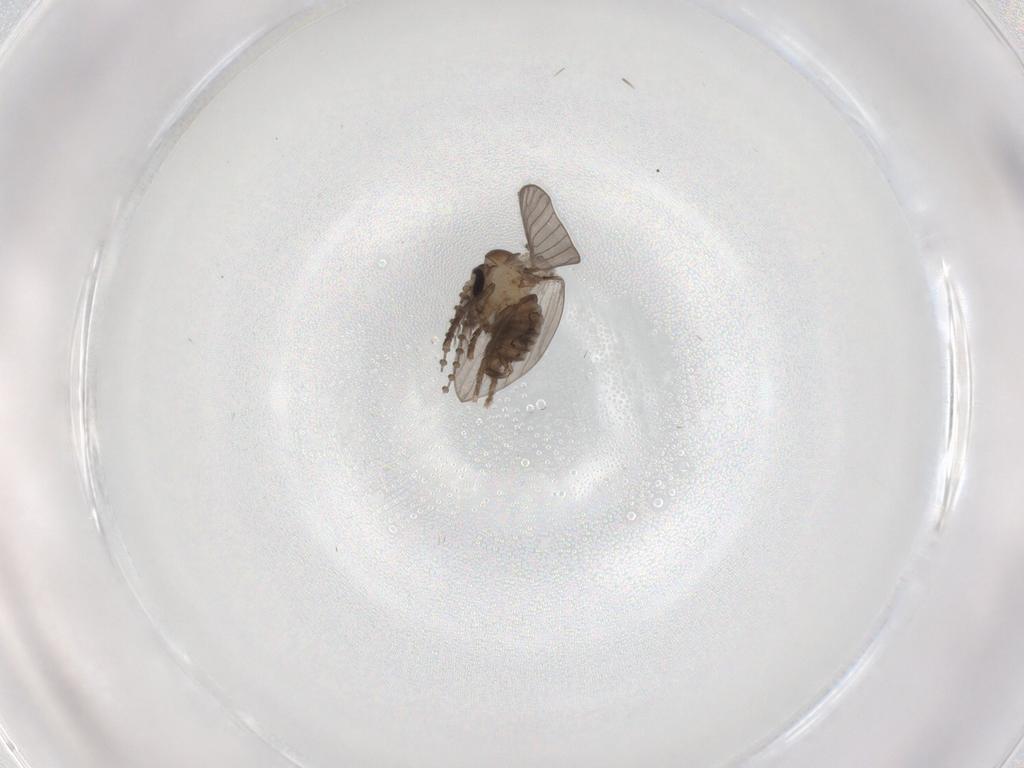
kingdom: Animalia
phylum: Arthropoda
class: Insecta
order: Diptera
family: Psychodidae
